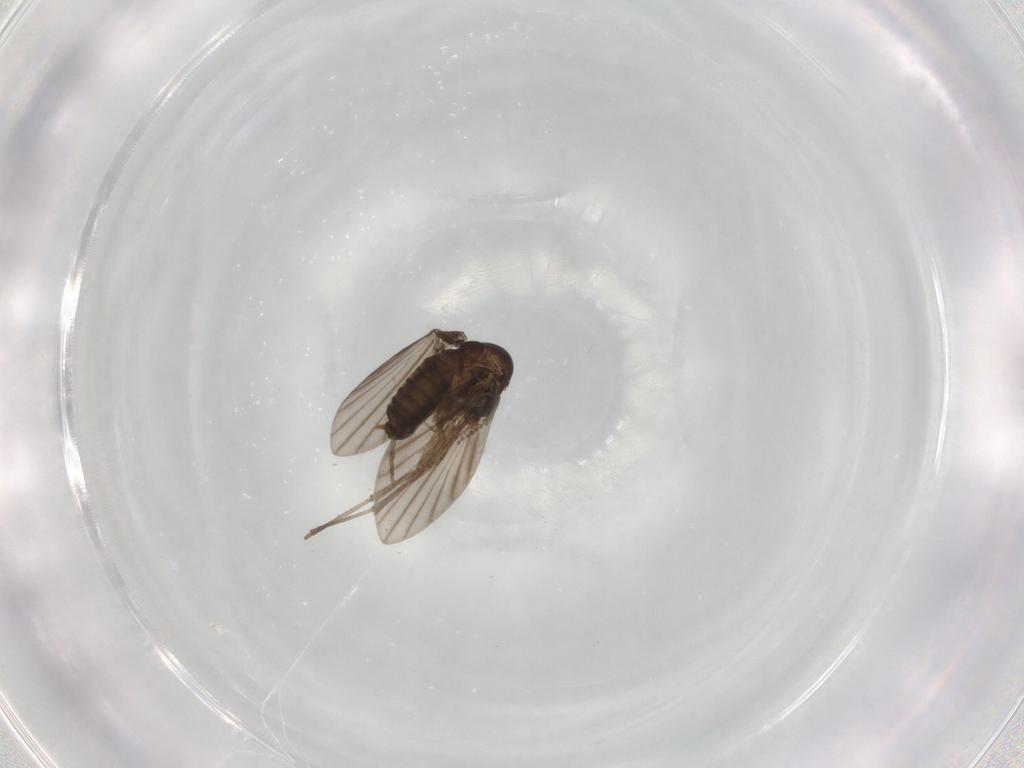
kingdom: Animalia
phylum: Arthropoda
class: Insecta
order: Diptera
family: Psychodidae
